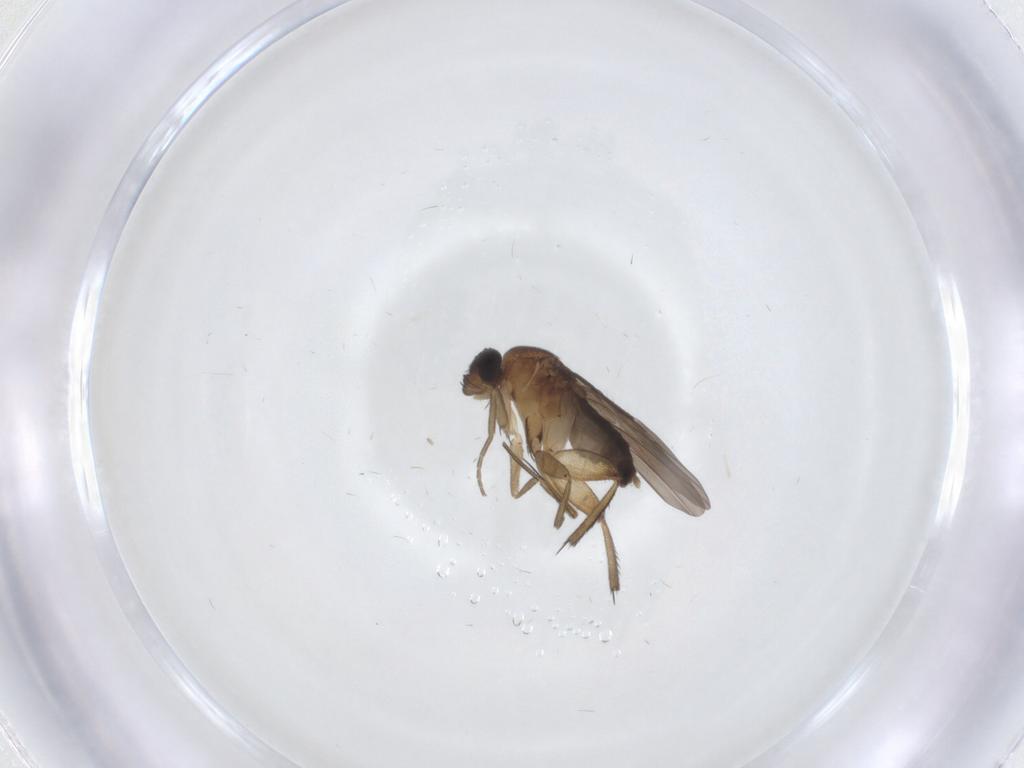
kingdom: Animalia
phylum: Arthropoda
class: Insecta
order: Diptera
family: Phoridae
